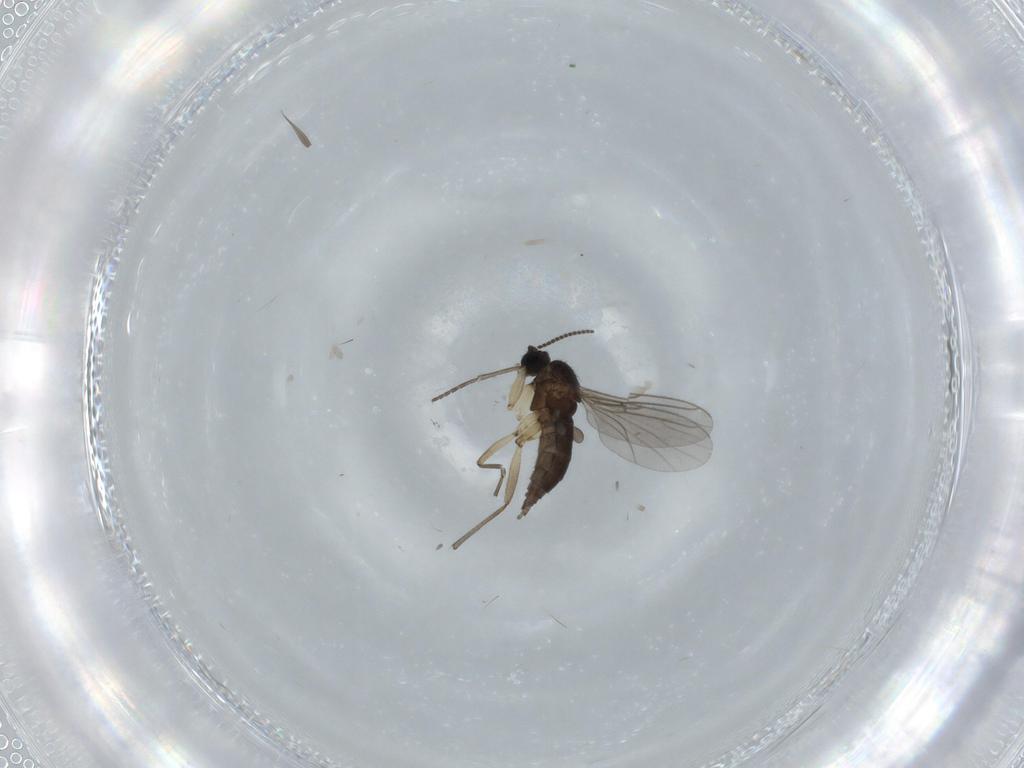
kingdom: Animalia
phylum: Arthropoda
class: Insecta
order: Diptera
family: Sciaridae
